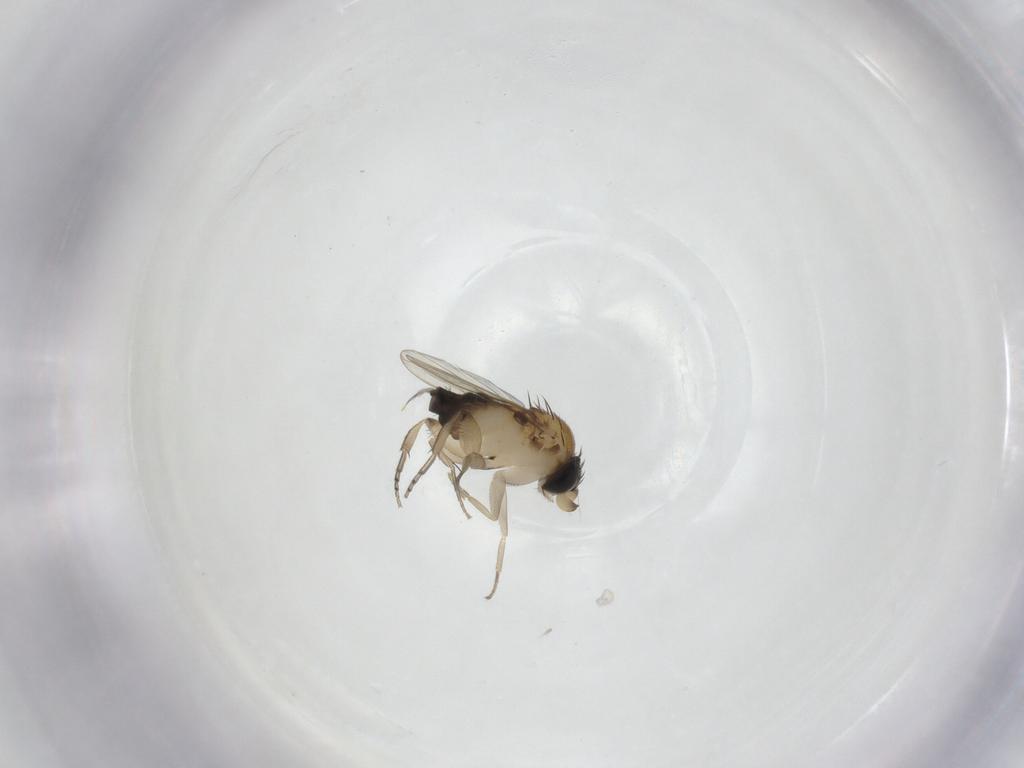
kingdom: Animalia
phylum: Arthropoda
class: Insecta
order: Diptera
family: Phoridae
